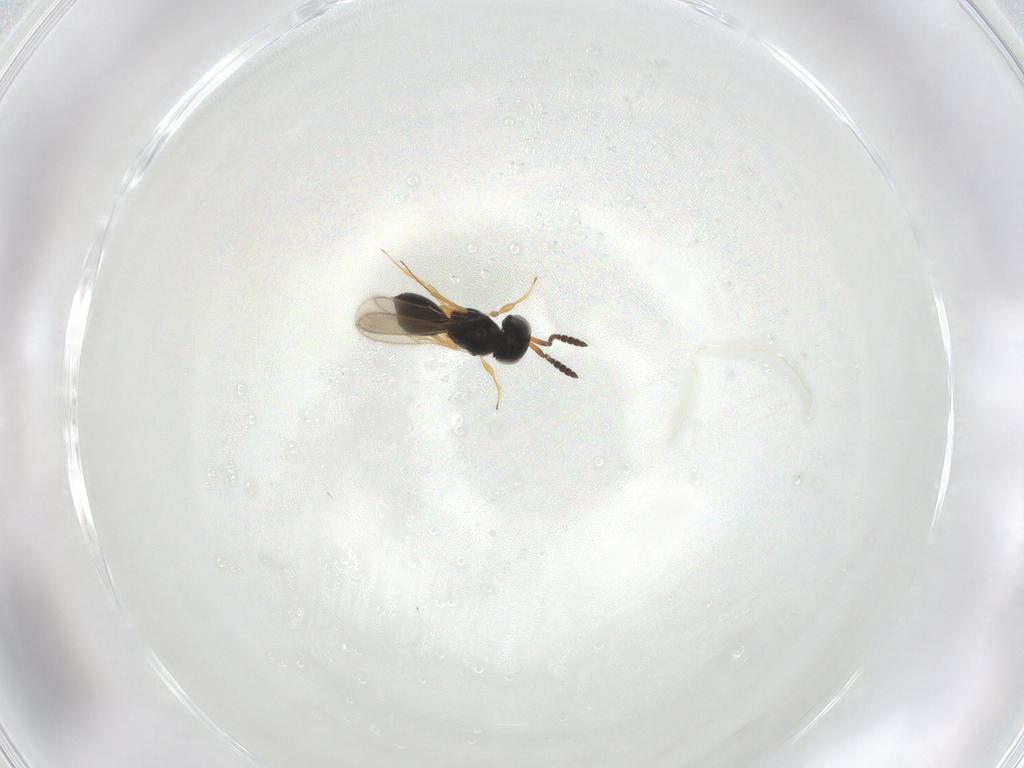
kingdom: Animalia
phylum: Arthropoda
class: Insecta
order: Hymenoptera
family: Scelionidae
